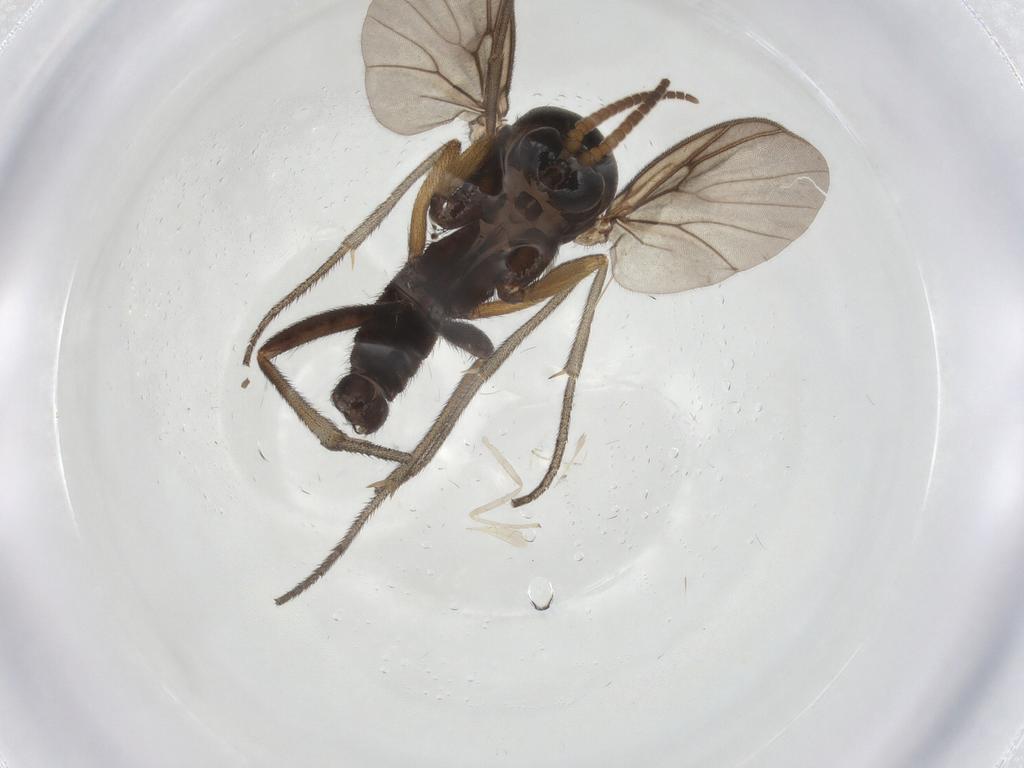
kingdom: Animalia
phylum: Arthropoda
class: Insecta
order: Diptera
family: Mycetophilidae
